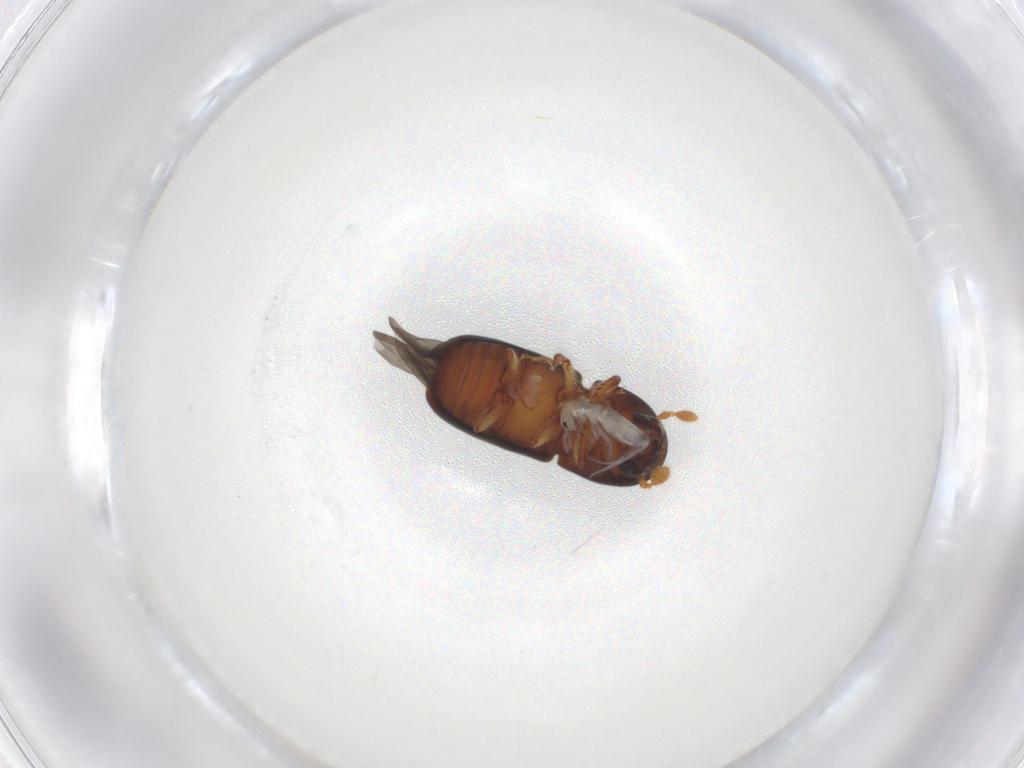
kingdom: Animalia
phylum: Arthropoda
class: Insecta
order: Coleoptera
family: Curculionidae
